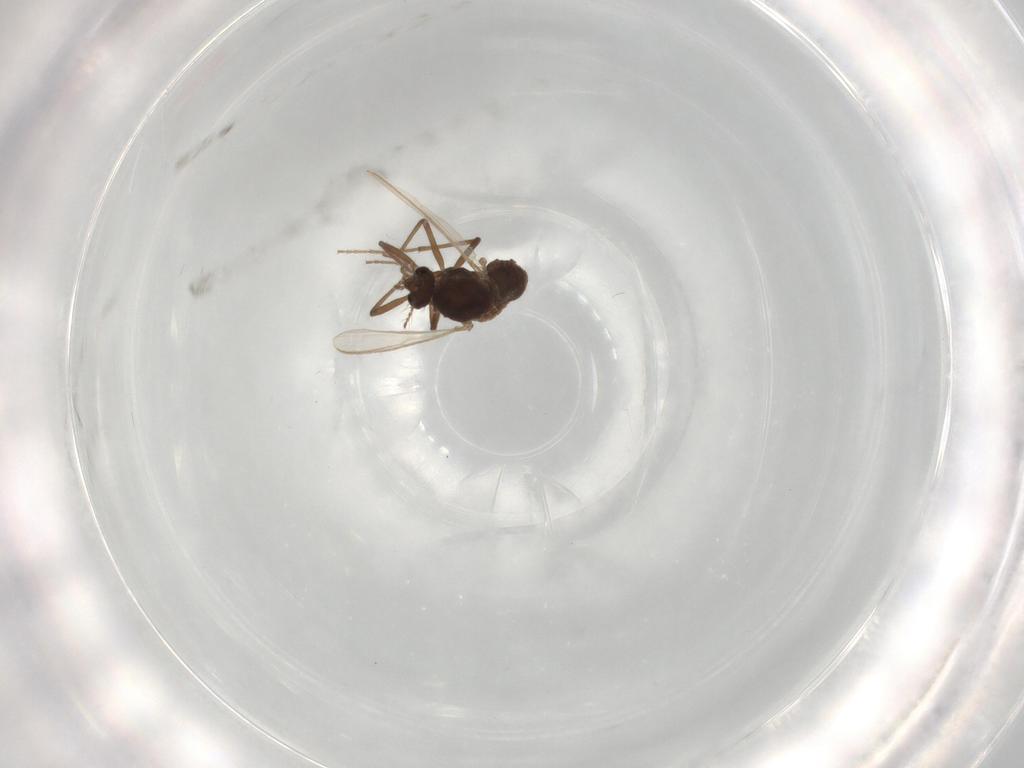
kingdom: Animalia
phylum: Arthropoda
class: Insecta
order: Diptera
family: Chironomidae
